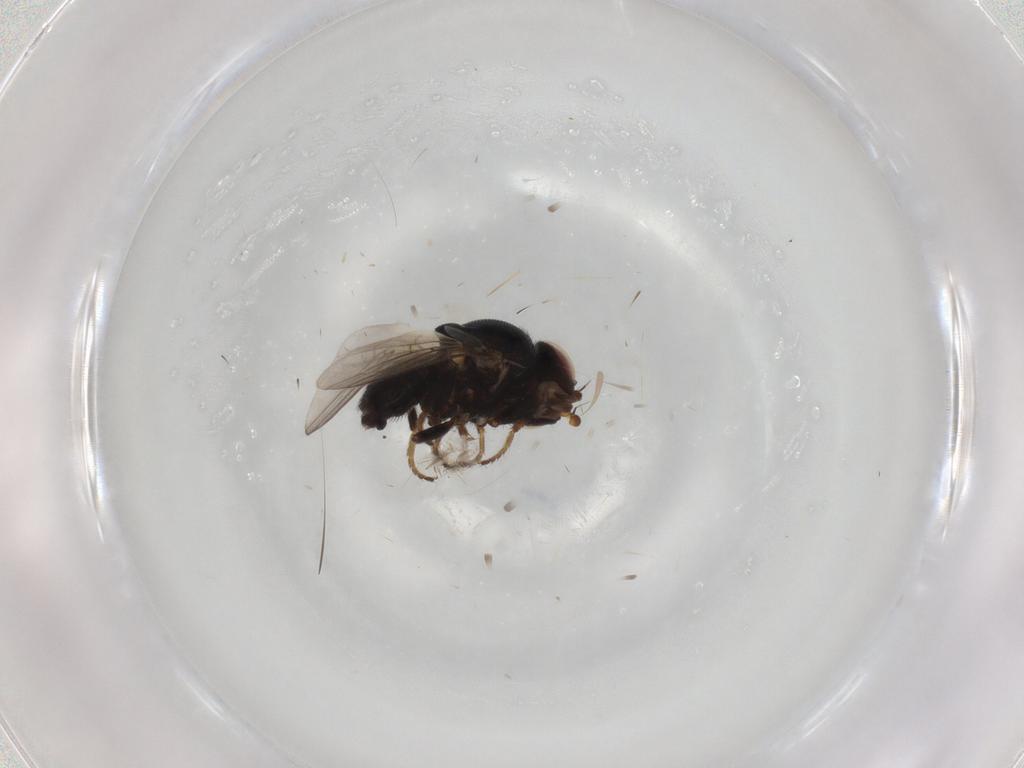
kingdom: Animalia
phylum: Arthropoda
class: Insecta
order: Diptera
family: Chloropidae
